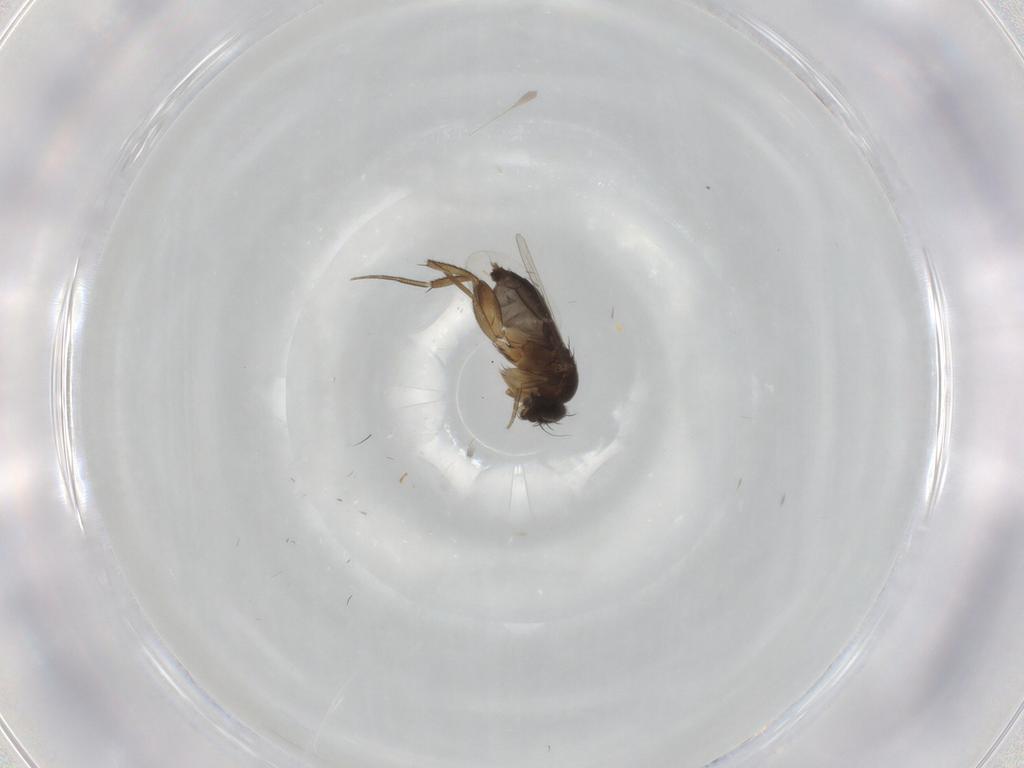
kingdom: Animalia
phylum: Arthropoda
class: Insecta
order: Diptera
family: Phoridae
